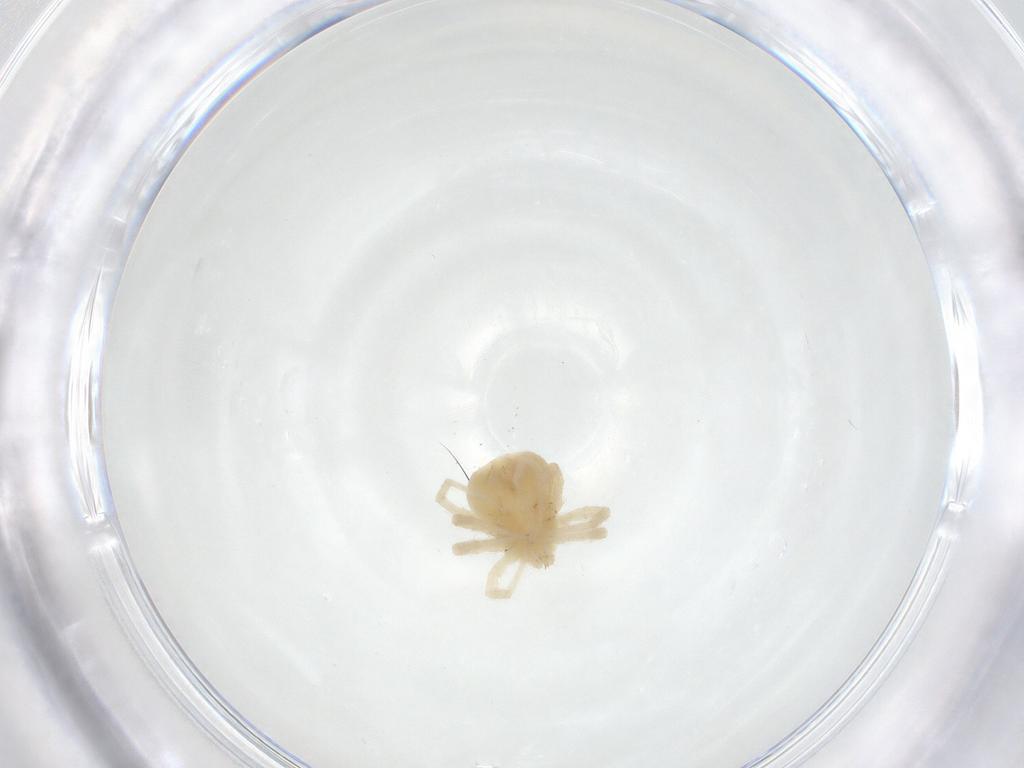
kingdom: Animalia
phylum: Arthropoda
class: Arachnida
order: Trombidiformes
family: Anystidae
